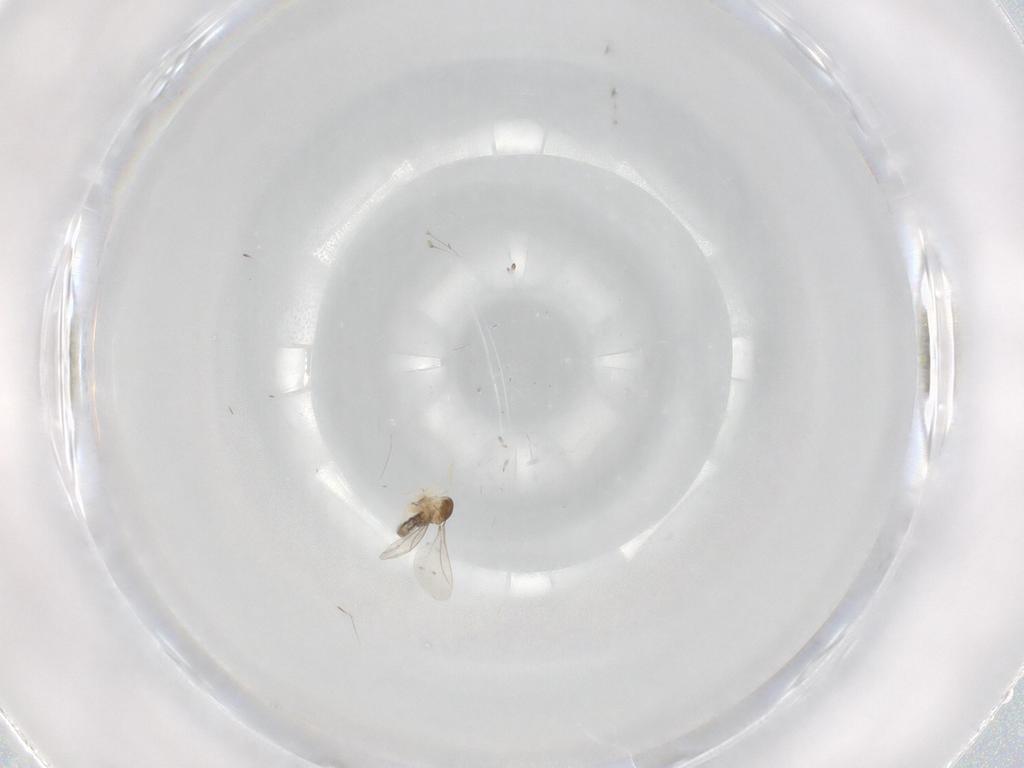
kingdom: Animalia
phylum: Arthropoda
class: Insecta
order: Diptera
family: Cecidomyiidae
